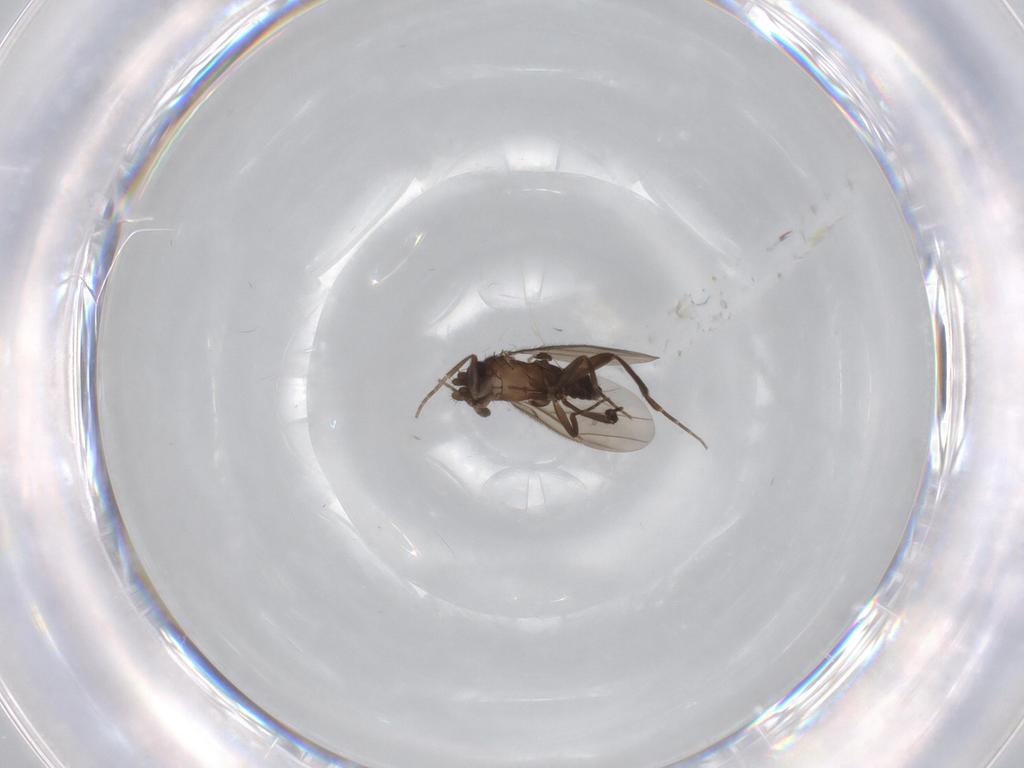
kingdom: Animalia
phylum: Arthropoda
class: Insecta
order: Diptera
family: Phoridae
